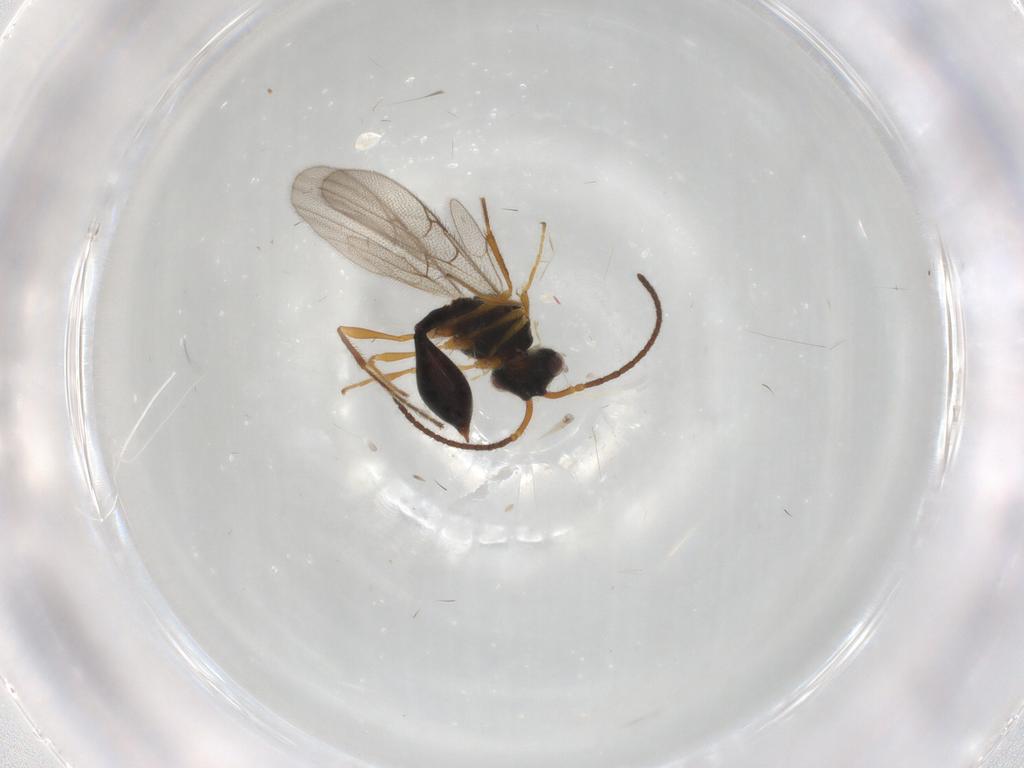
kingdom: Animalia
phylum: Arthropoda
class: Insecta
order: Hymenoptera
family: Diapriidae
